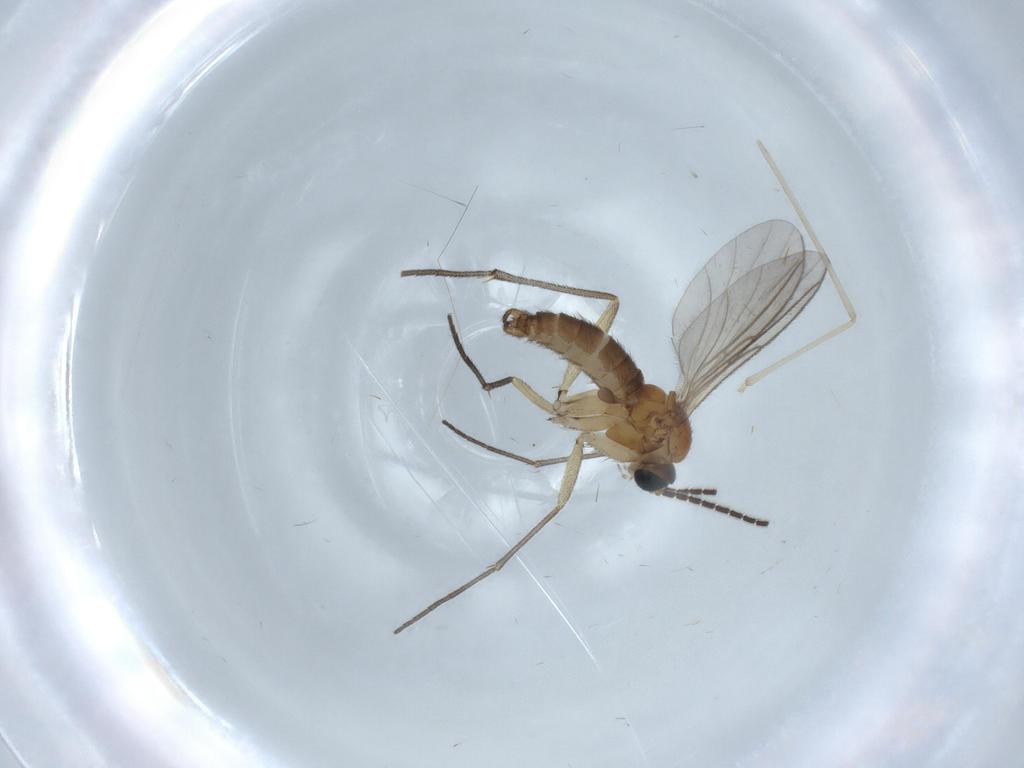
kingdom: Animalia
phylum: Arthropoda
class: Insecta
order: Diptera
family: Sciaridae
